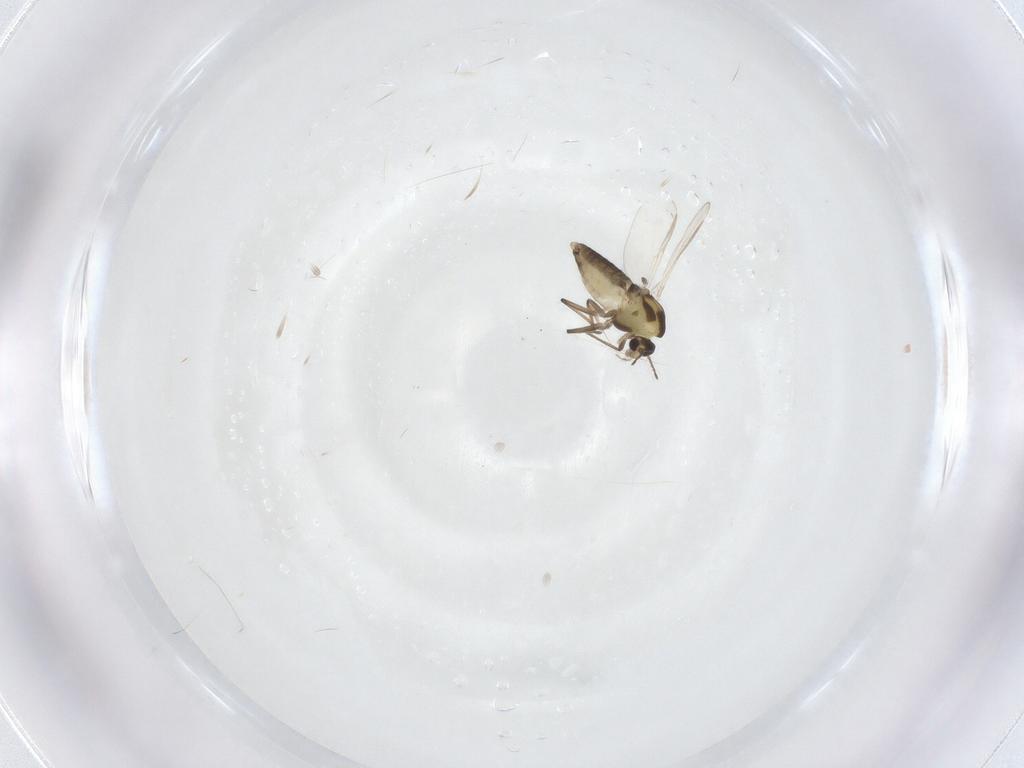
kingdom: Animalia
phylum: Arthropoda
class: Insecta
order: Diptera
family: Chironomidae
